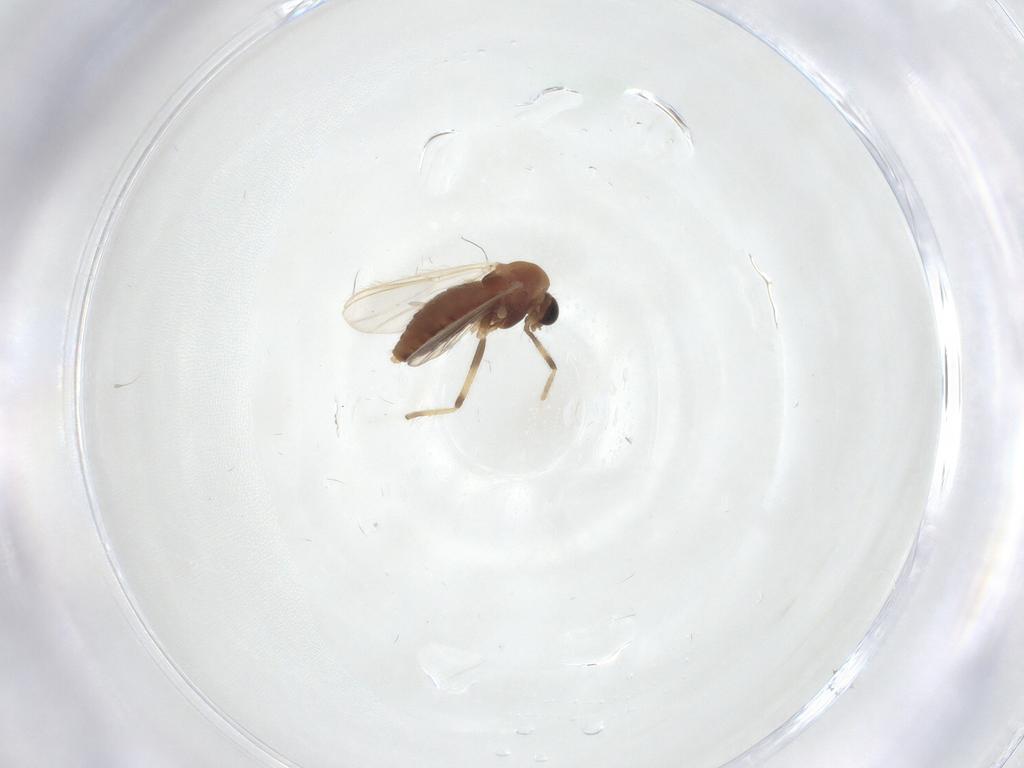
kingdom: Animalia
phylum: Arthropoda
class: Insecta
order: Diptera
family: Chironomidae
